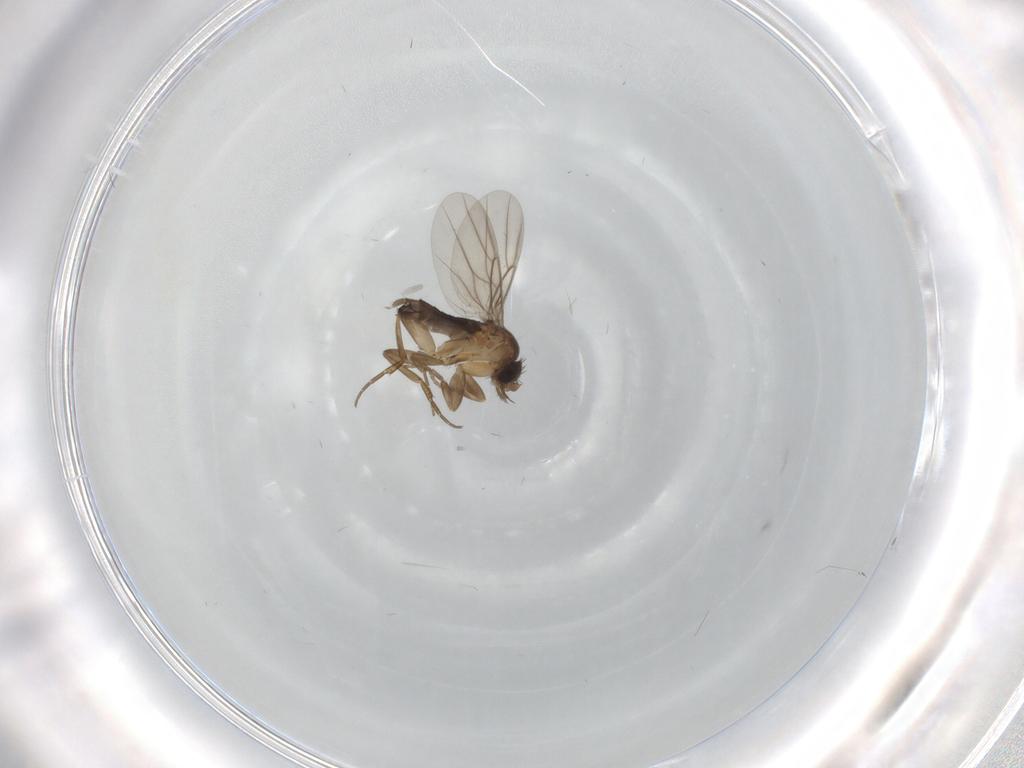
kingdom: Animalia
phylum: Arthropoda
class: Insecta
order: Diptera
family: Phoridae
